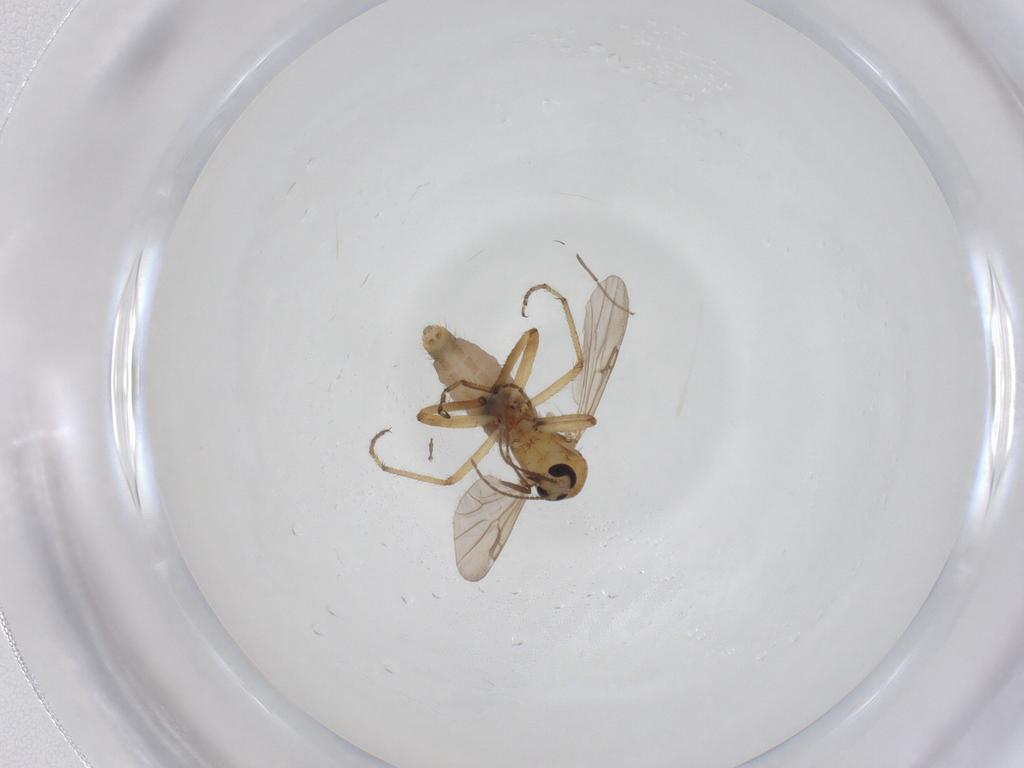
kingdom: Animalia
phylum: Arthropoda
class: Insecta
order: Diptera
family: Ceratopogonidae
